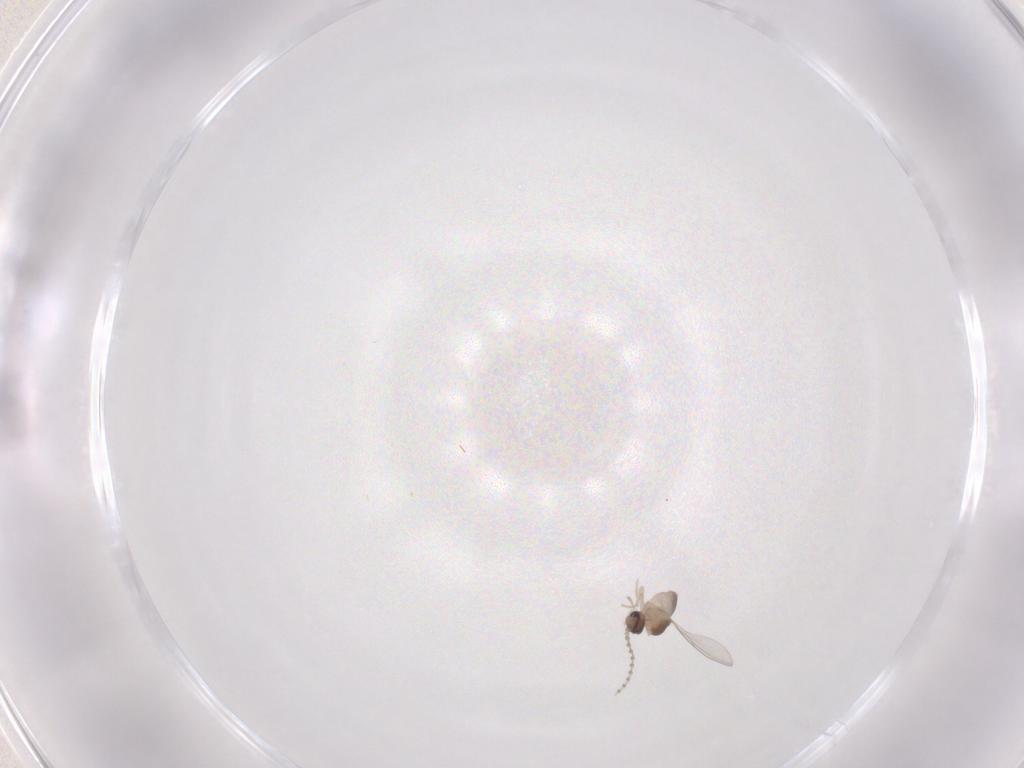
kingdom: Animalia
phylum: Arthropoda
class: Insecta
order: Diptera
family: Cecidomyiidae
